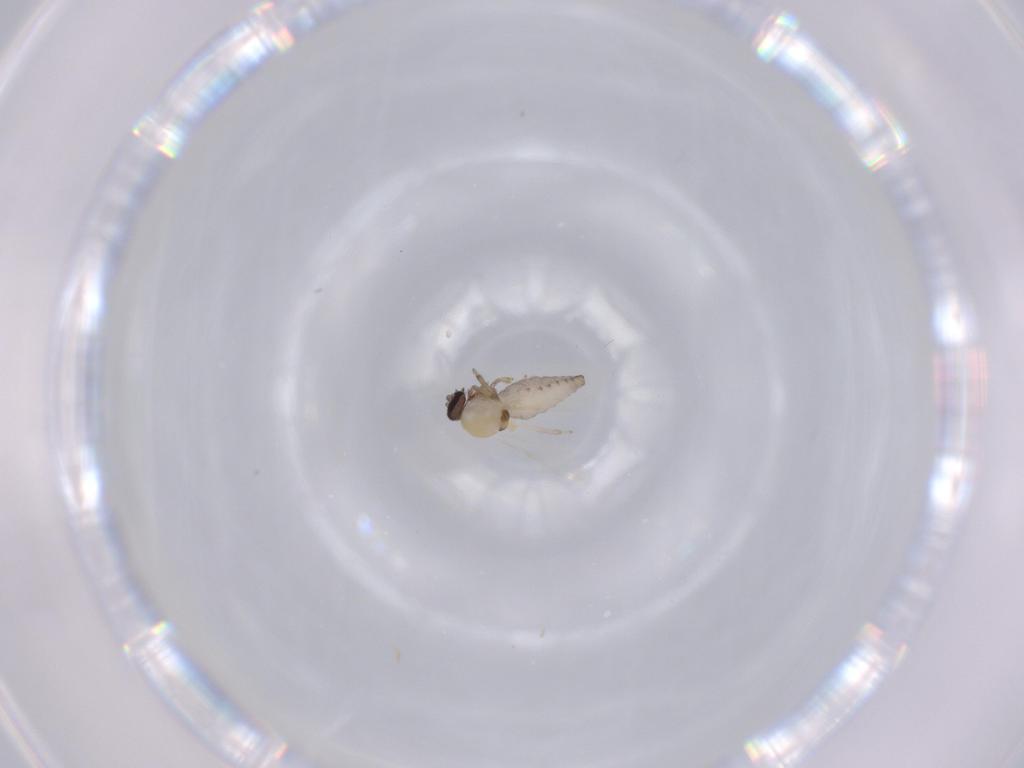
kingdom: Animalia
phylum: Arthropoda
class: Insecta
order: Diptera
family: Ceratopogonidae
